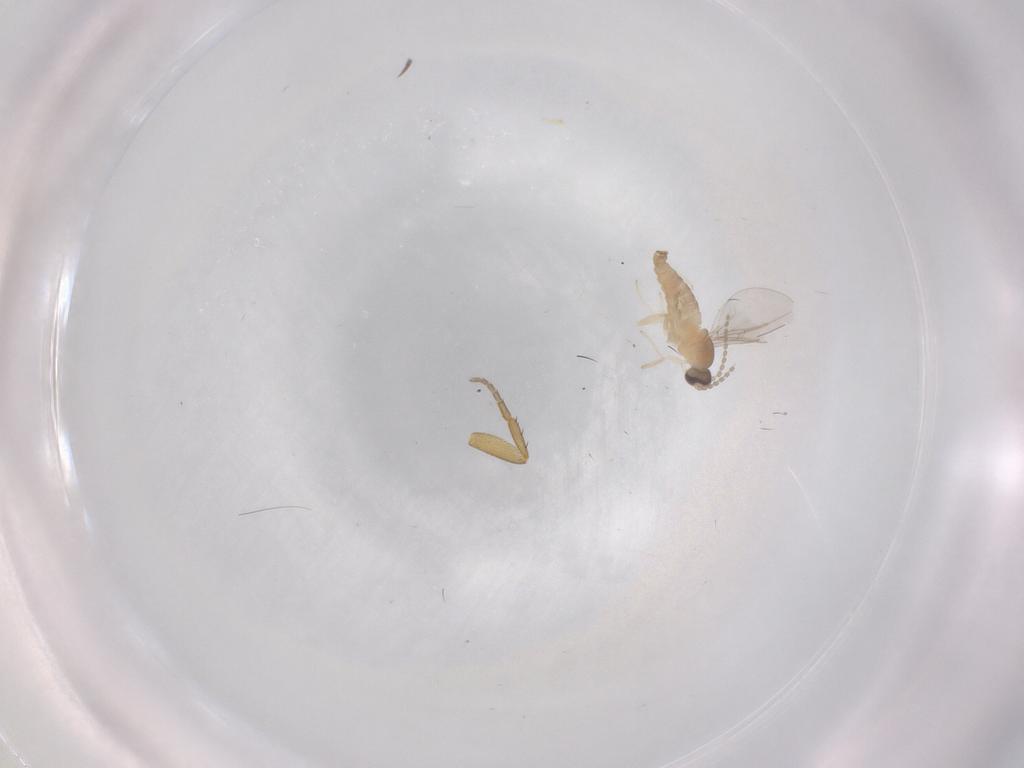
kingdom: Animalia
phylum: Arthropoda
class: Insecta
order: Diptera
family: Cecidomyiidae
